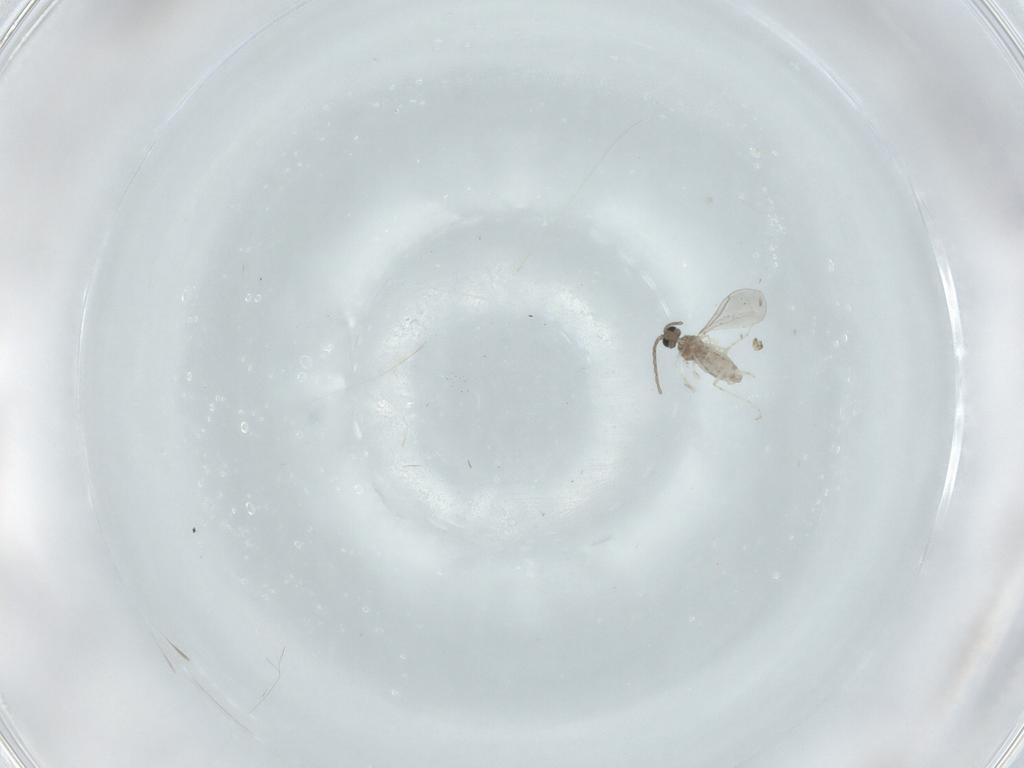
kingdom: Animalia
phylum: Arthropoda
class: Insecta
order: Diptera
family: Cecidomyiidae
